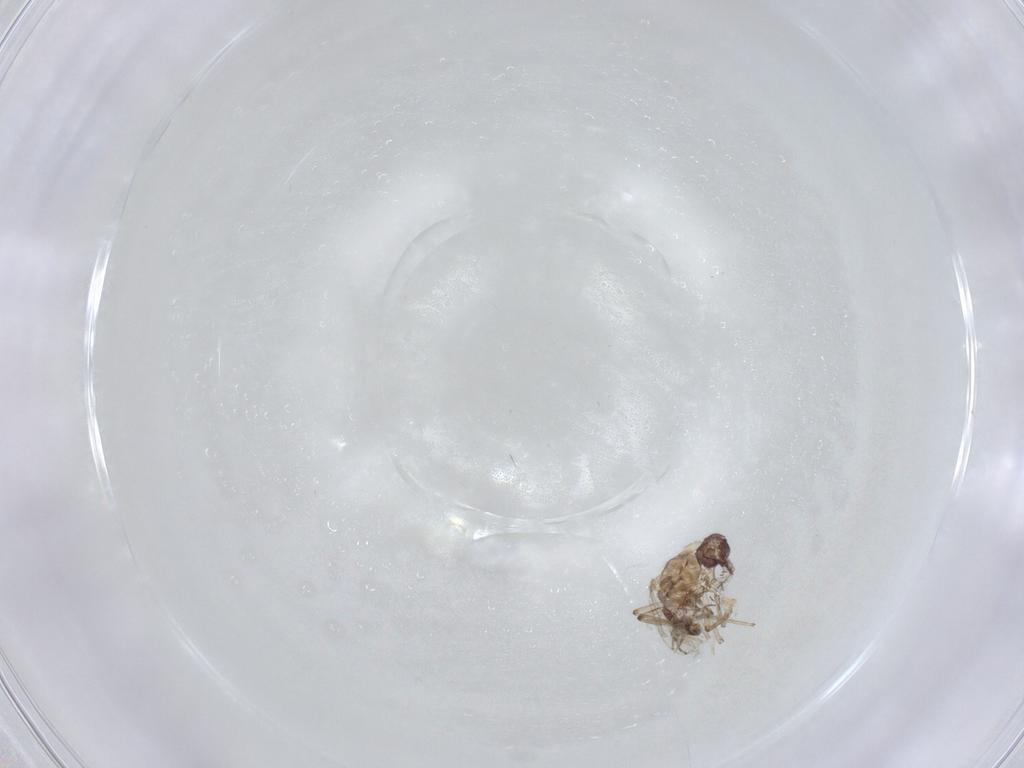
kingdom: Animalia
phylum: Arthropoda
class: Insecta
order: Diptera
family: Ceratopogonidae
